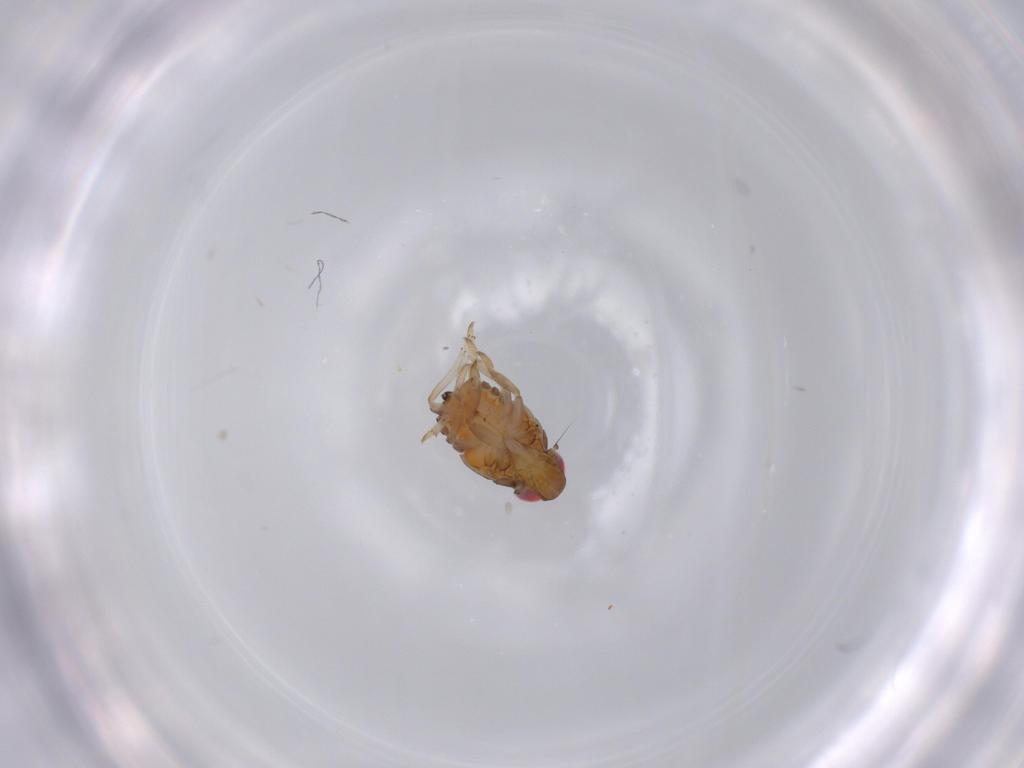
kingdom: Animalia
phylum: Arthropoda
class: Insecta
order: Hemiptera
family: Issidae
